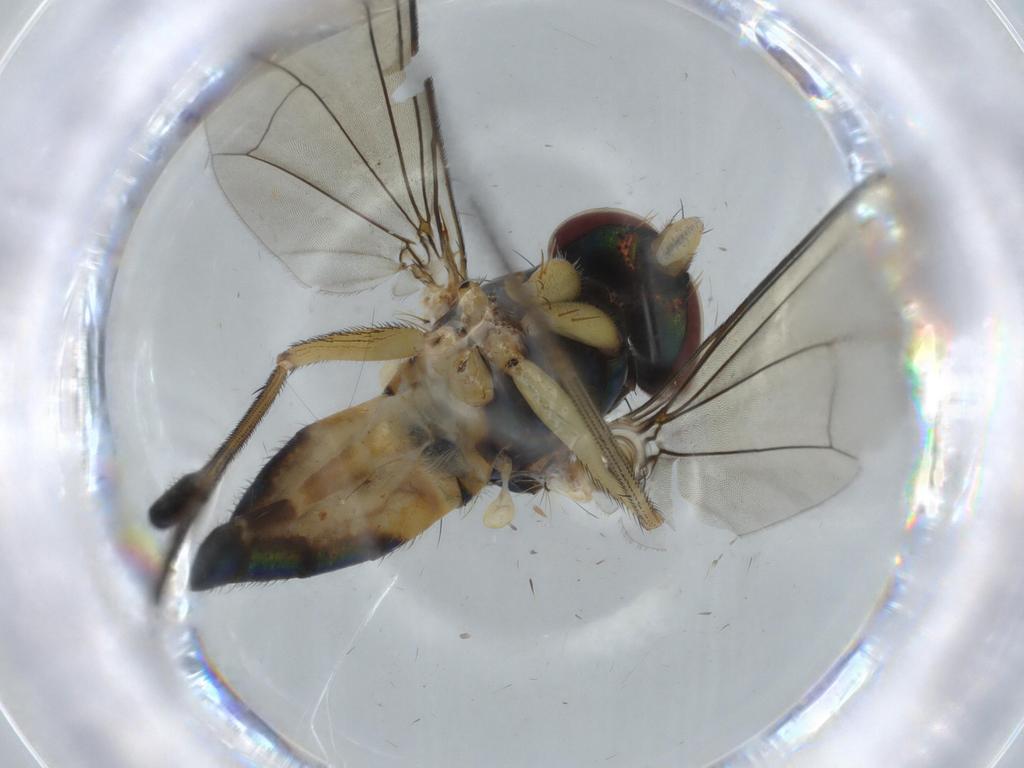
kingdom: Animalia
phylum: Arthropoda
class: Insecta
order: Diptera
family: Dolichopodidae
